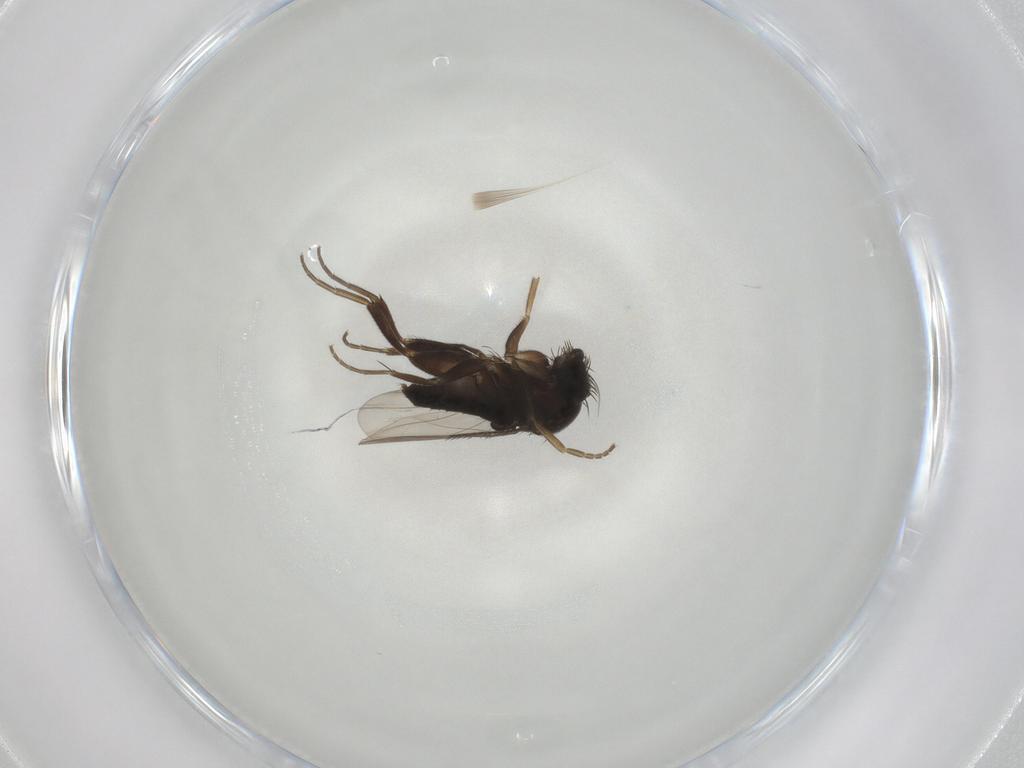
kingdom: Animalia
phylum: Arthropoda
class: Insecta
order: Diptera
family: Phoridae
